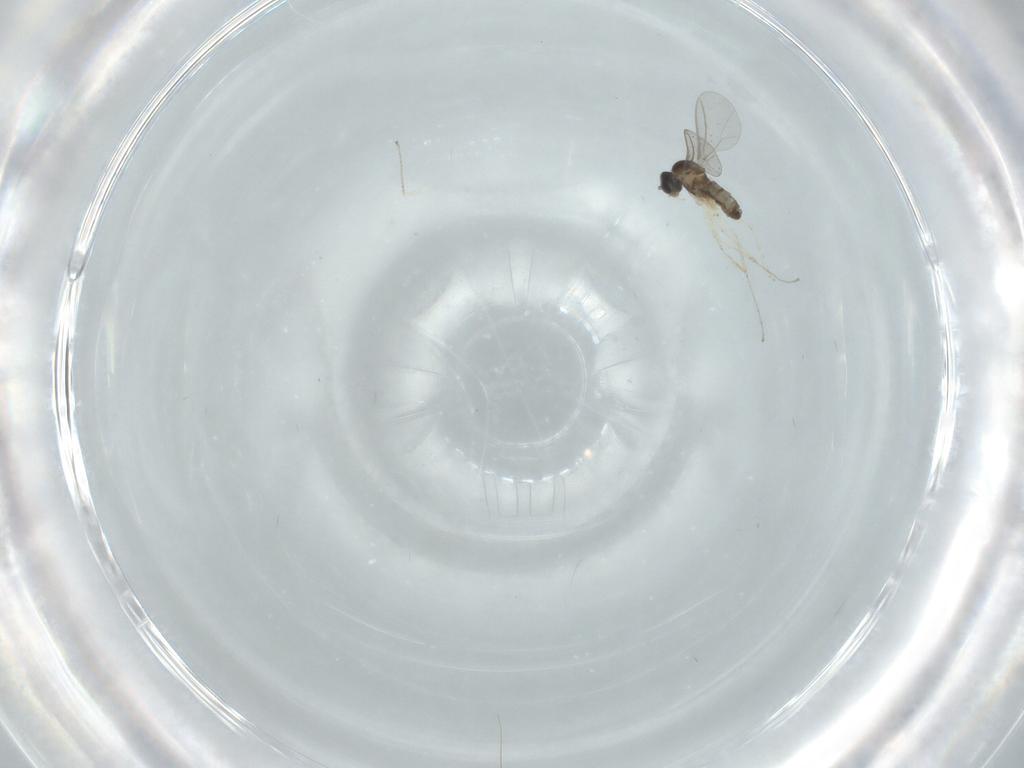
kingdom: Animalia
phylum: Arthropoda
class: Insecta
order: Diptera
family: Cecidomyiidae
